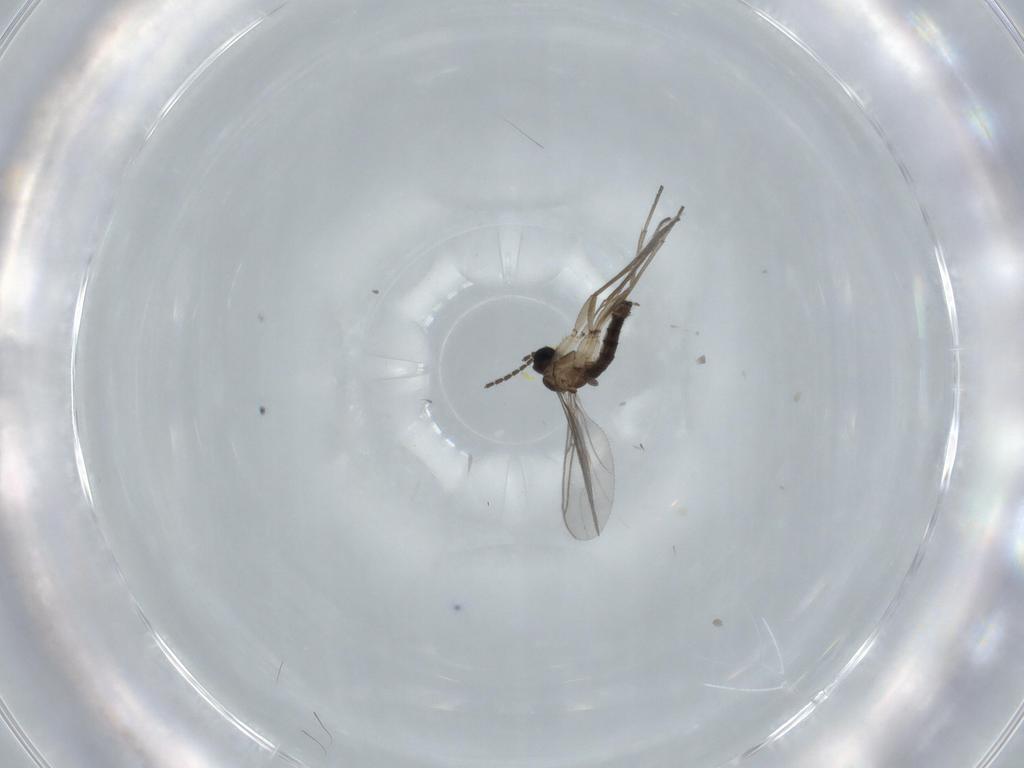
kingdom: Animalia
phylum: Arthropoda
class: Insecta
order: Diptera
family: Sciaridae
